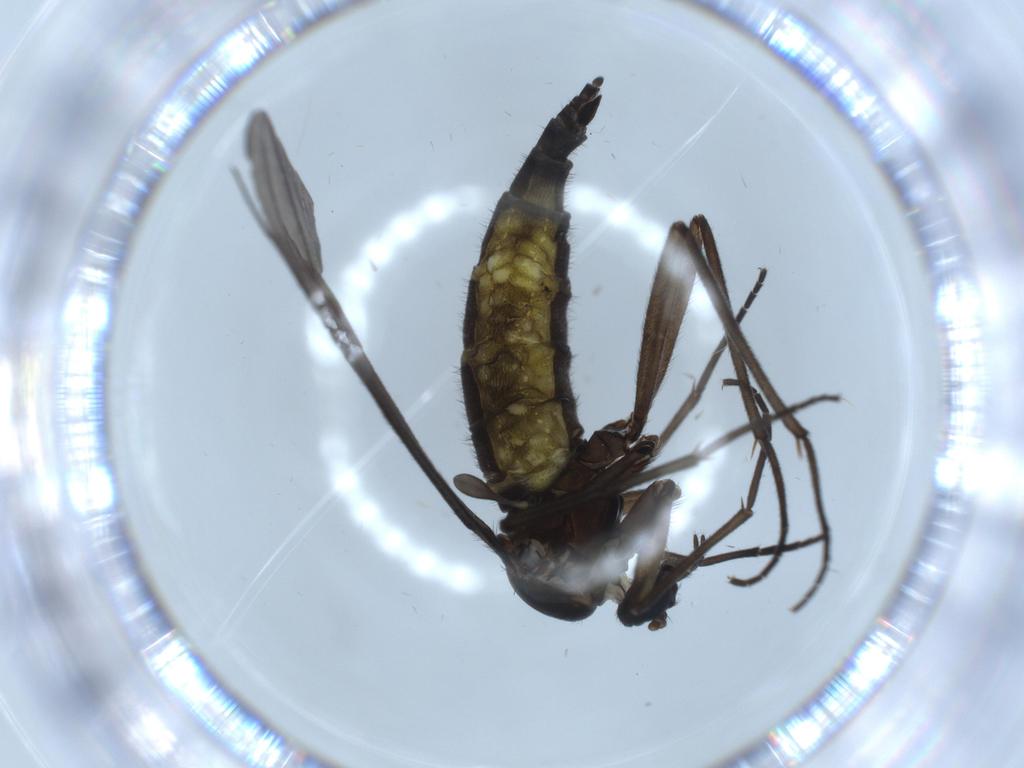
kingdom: Animalia
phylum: Arthropoda
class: Insecta
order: Diptera
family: Sciaridae
